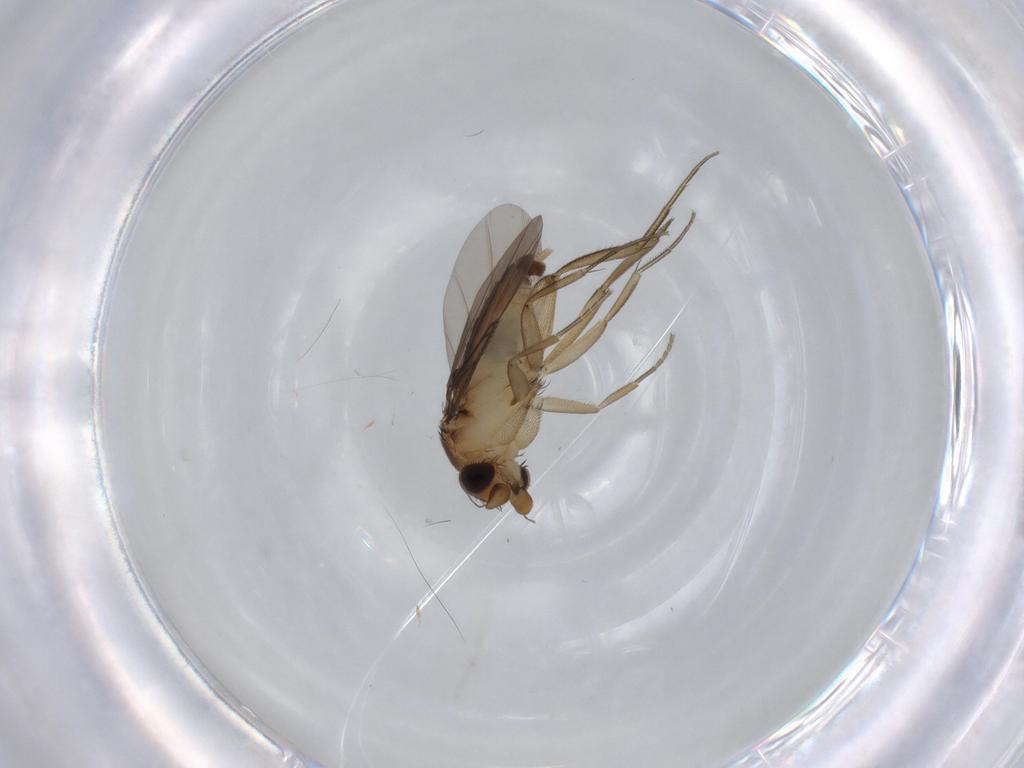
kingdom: Animalia
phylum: Arthropoda
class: Insecta
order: Diptera
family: Phoridae
